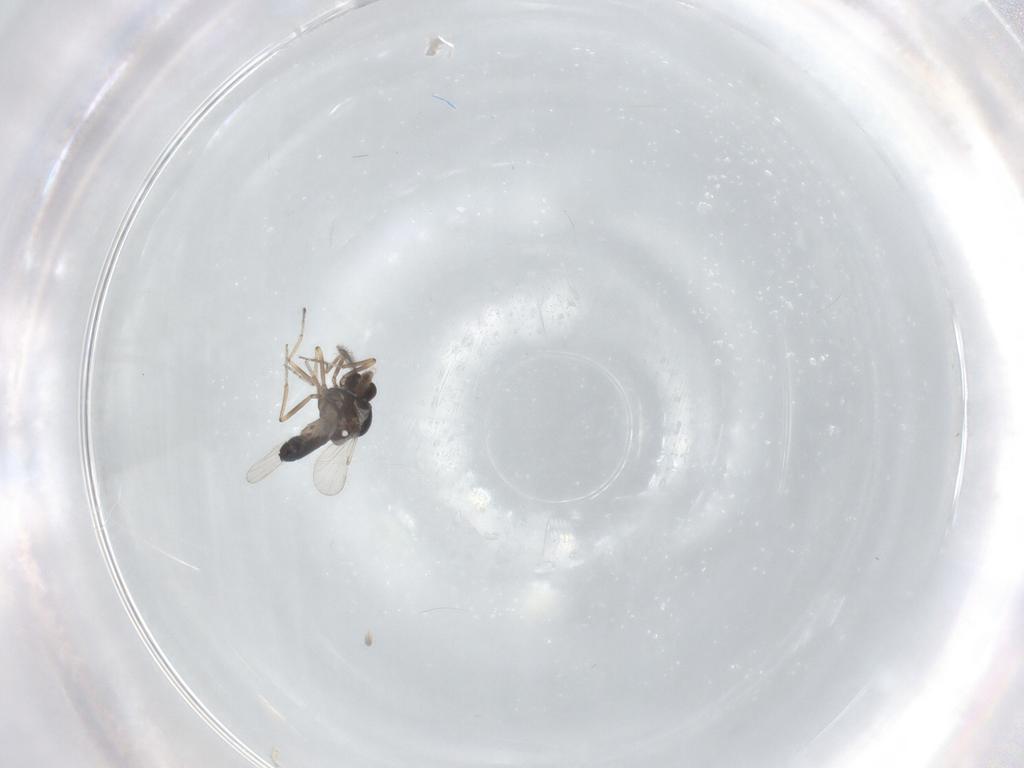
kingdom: Animalia
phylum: Arthropoda
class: Insecta
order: Diptera
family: Ceratopogonidae
